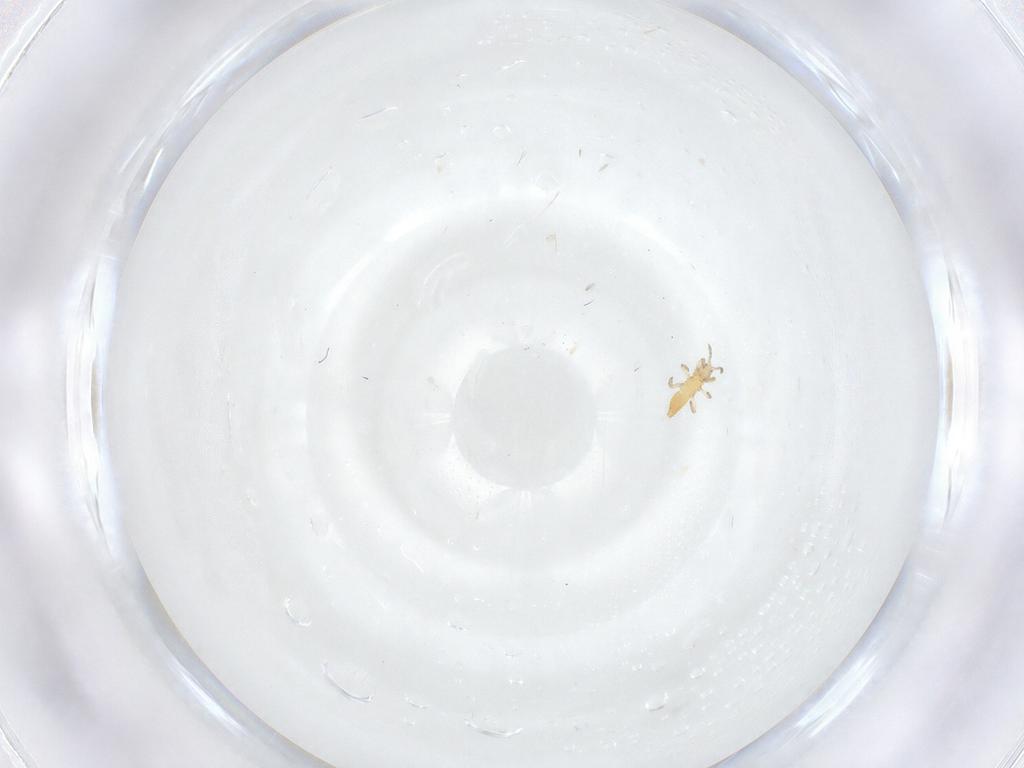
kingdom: Animalia
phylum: Arthropoda
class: Insecta
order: Thysanoptera
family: Aeolothripidae
